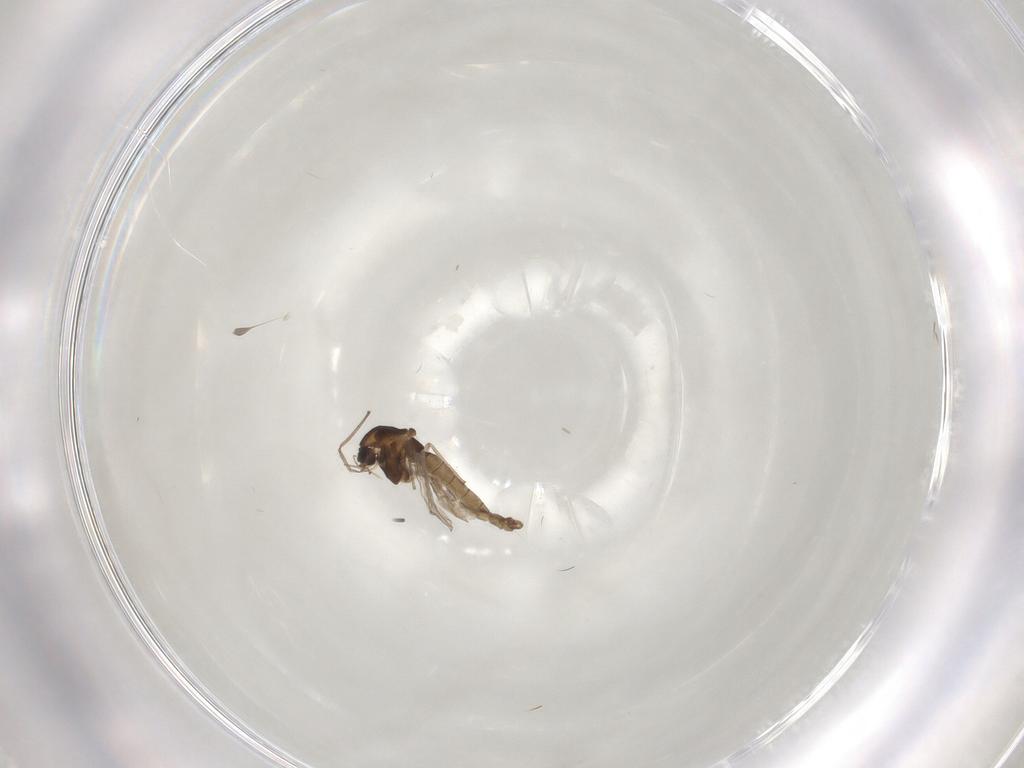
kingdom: Animalia
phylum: Arthropoda
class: Insecta
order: Diptera
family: Chironomidae
